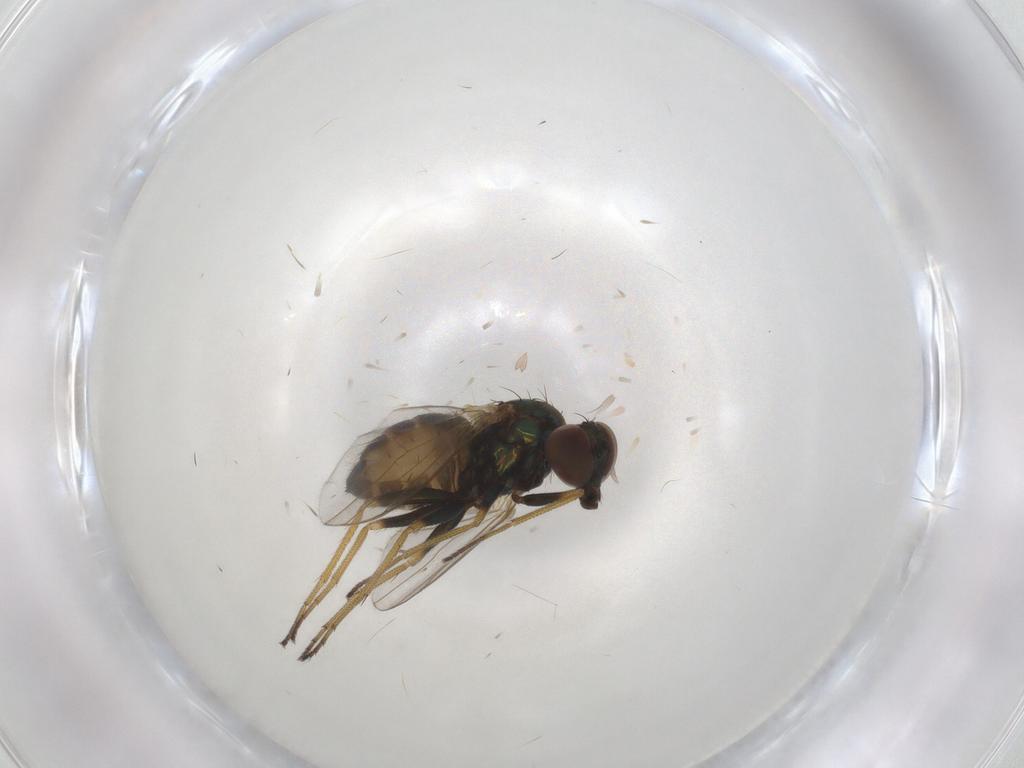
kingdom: Animalia
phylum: Arthropoda
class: Insecta
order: Diptera
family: Dolichopodidae
